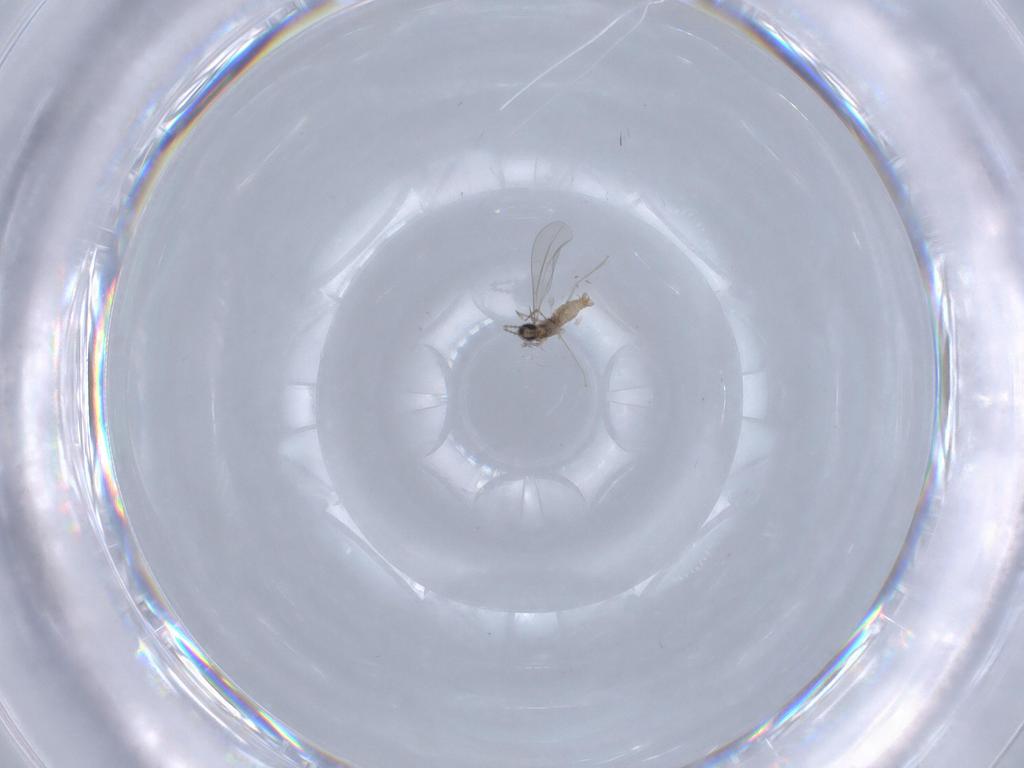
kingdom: Animalia
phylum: Arthropoda
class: Insecta
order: Diptera
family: Cecidomyiidae
